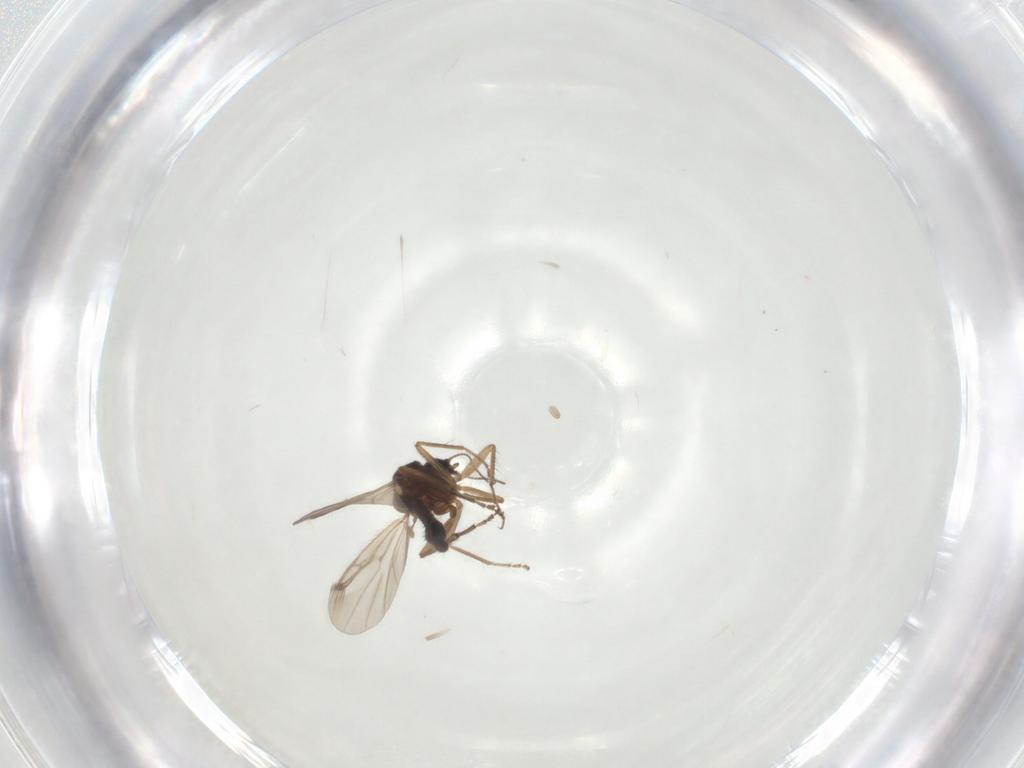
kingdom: Animalia
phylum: Arthropoda
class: Insecta
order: Diptera
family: Ceratopogonidae
